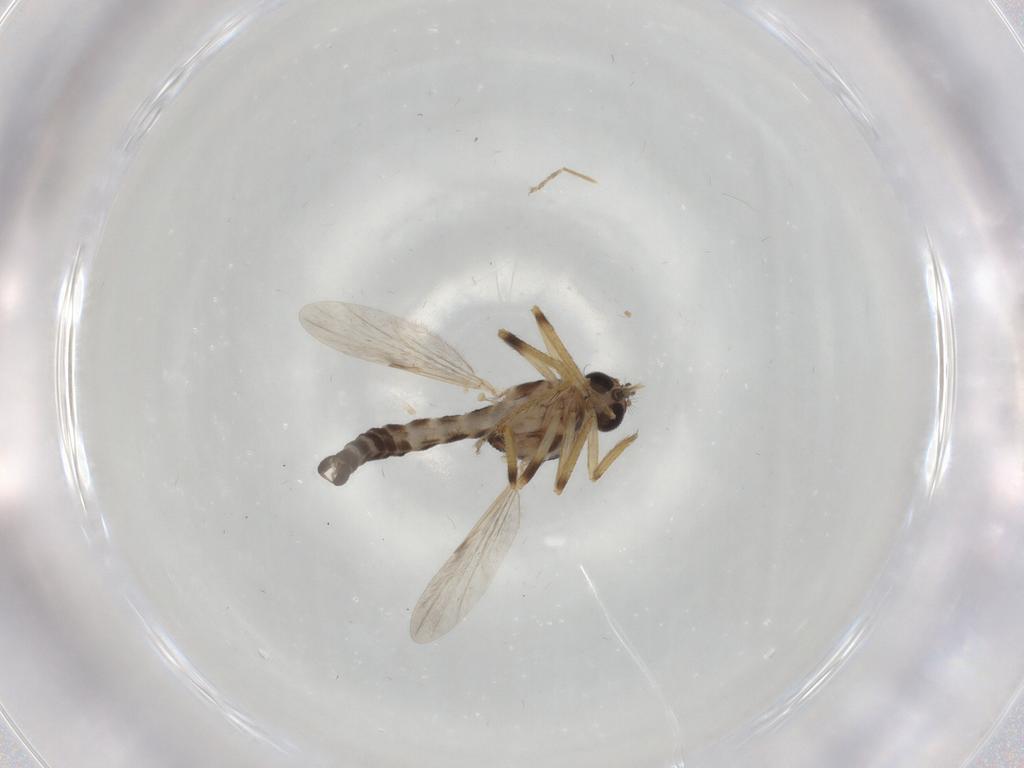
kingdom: Animalia
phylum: Arthropoda
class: Insecta
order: Diptera
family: Ceratopogonidae
